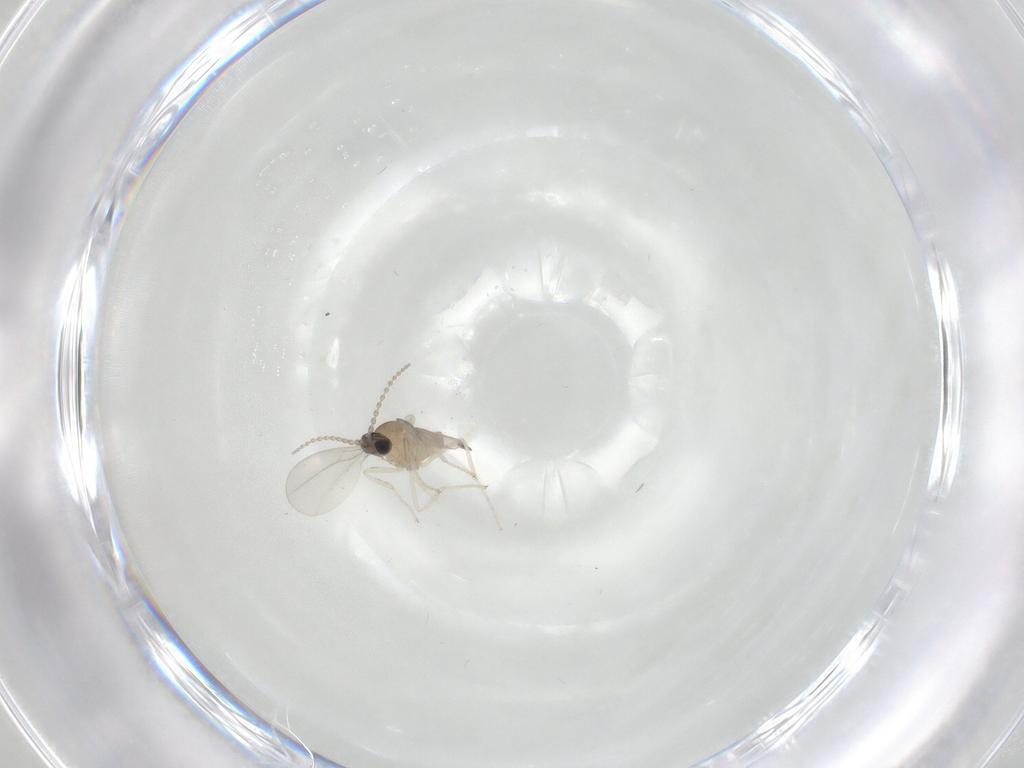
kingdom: Animalia
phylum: Arthropoda
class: Insecta
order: Diptera
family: Cecidomyiidae
